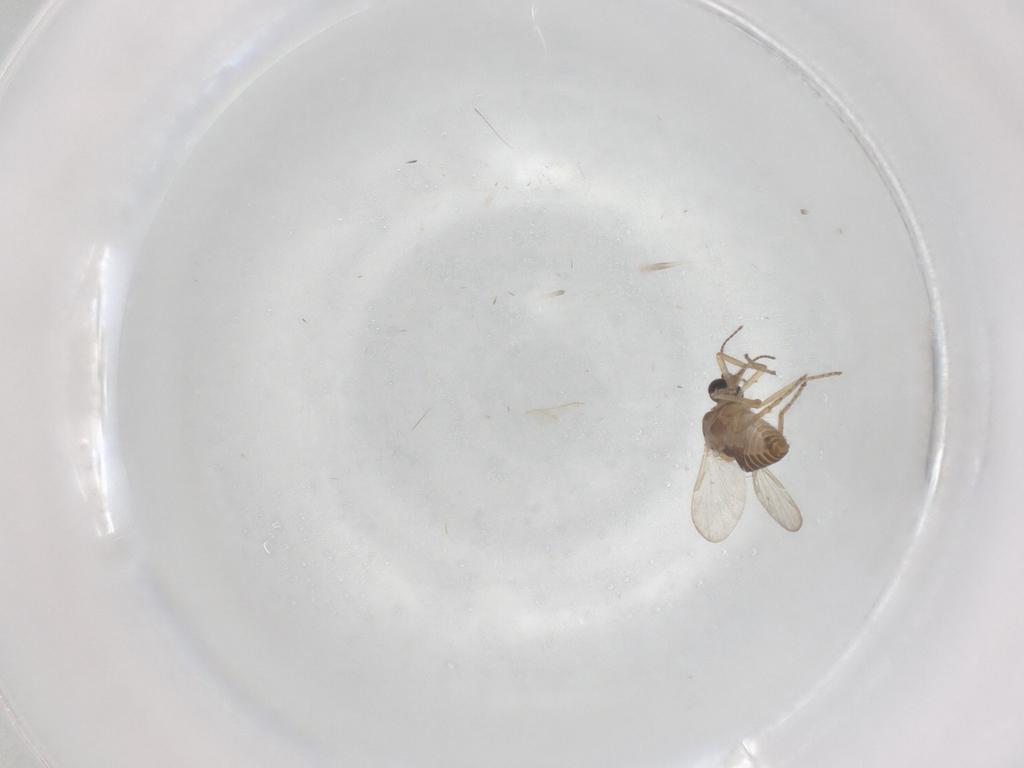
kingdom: Animalia
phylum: Arthropoda
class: Insecta
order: Diptera
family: Ceratopogonidae
